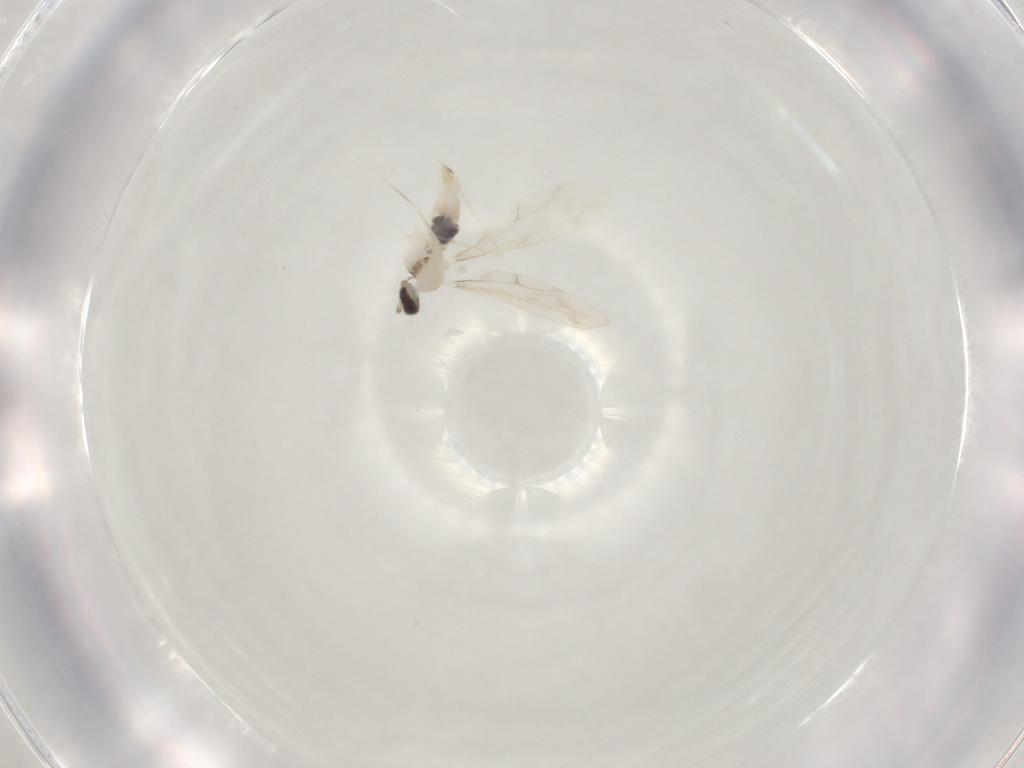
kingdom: Animalia
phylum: Arthropoda
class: Insecta
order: Diptera
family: Cecidomyiidae
